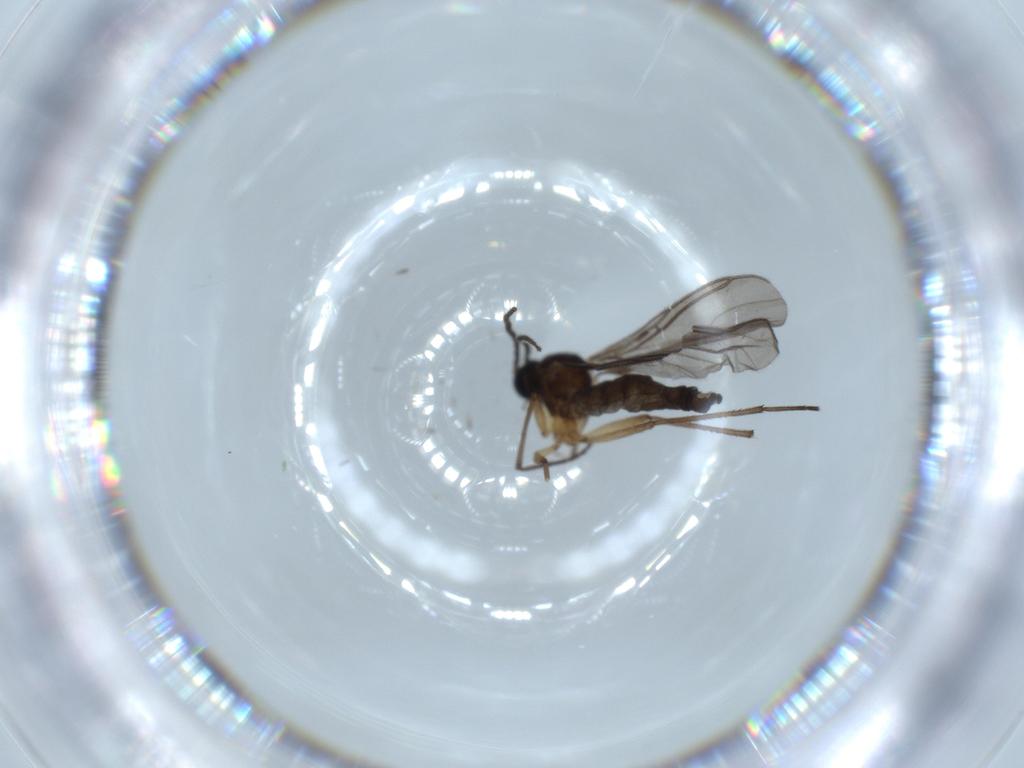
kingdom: Animalia
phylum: Arthropoda
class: Insecta
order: Diptera
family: Sciaridae
